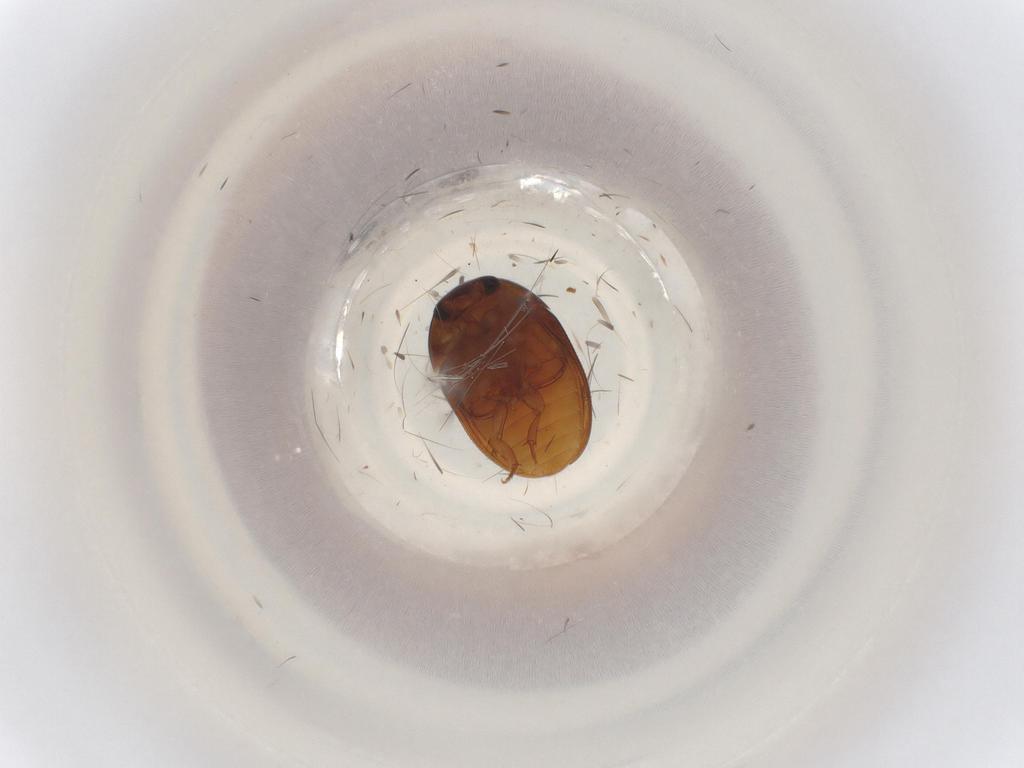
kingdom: Animalia
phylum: Arthropoda
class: Insecta
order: Coleoptera
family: Phalacridae
